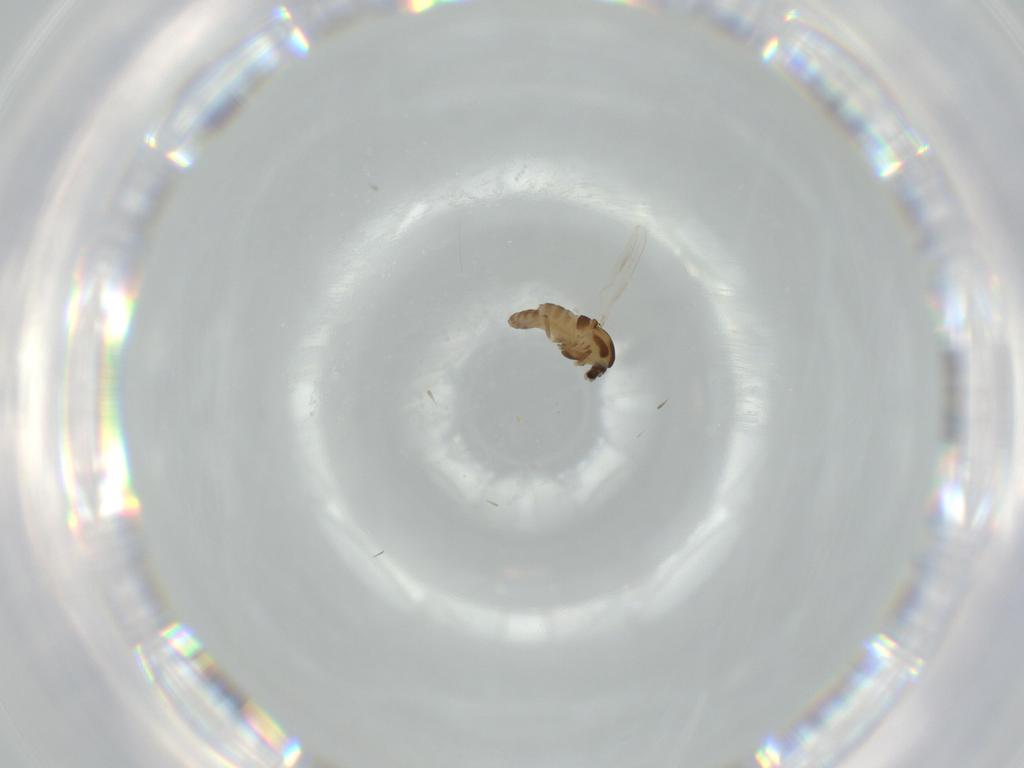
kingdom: Animalia
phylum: Arthropoda
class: Insecta
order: Diptera
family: Chironomidae
